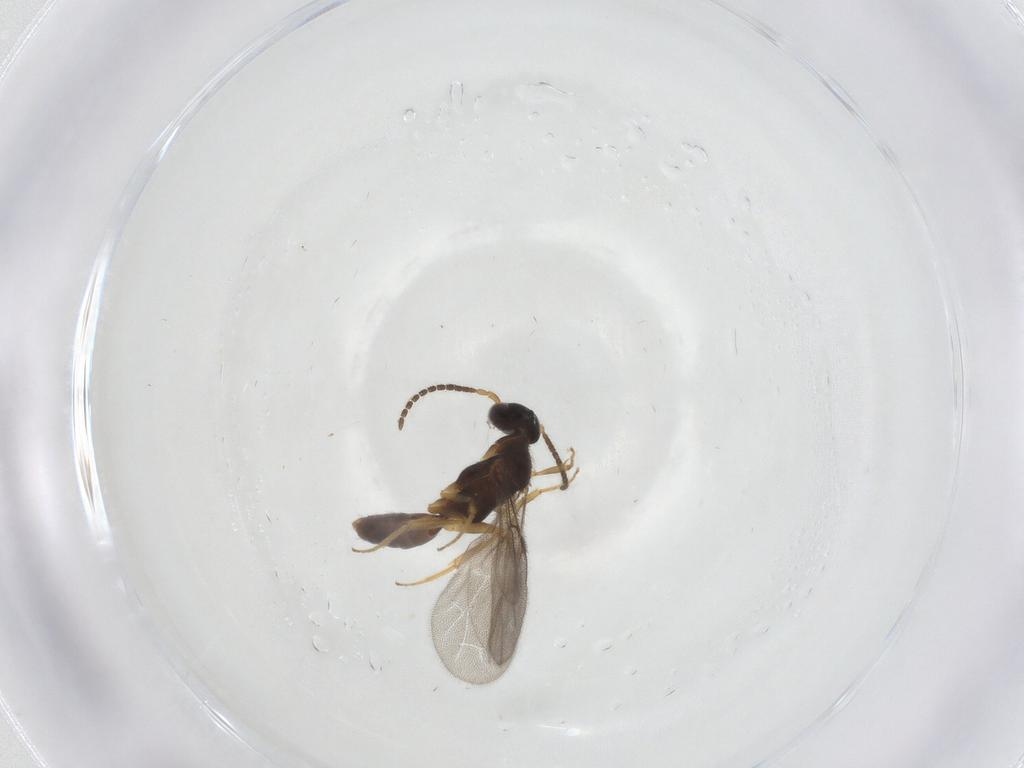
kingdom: Animalia
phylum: Arthropoda
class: Insecta
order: Hymenoptera
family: Bethylidae
